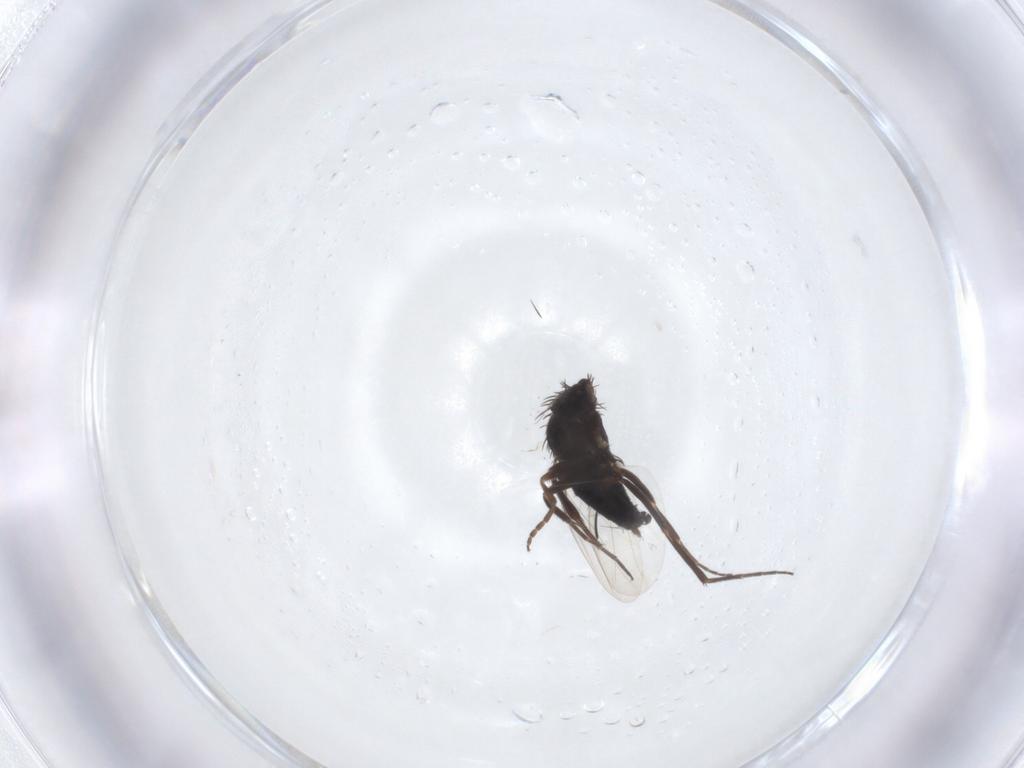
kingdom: Animalia
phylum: Arthropoda
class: Insecta
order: Diptera
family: Phoridae
